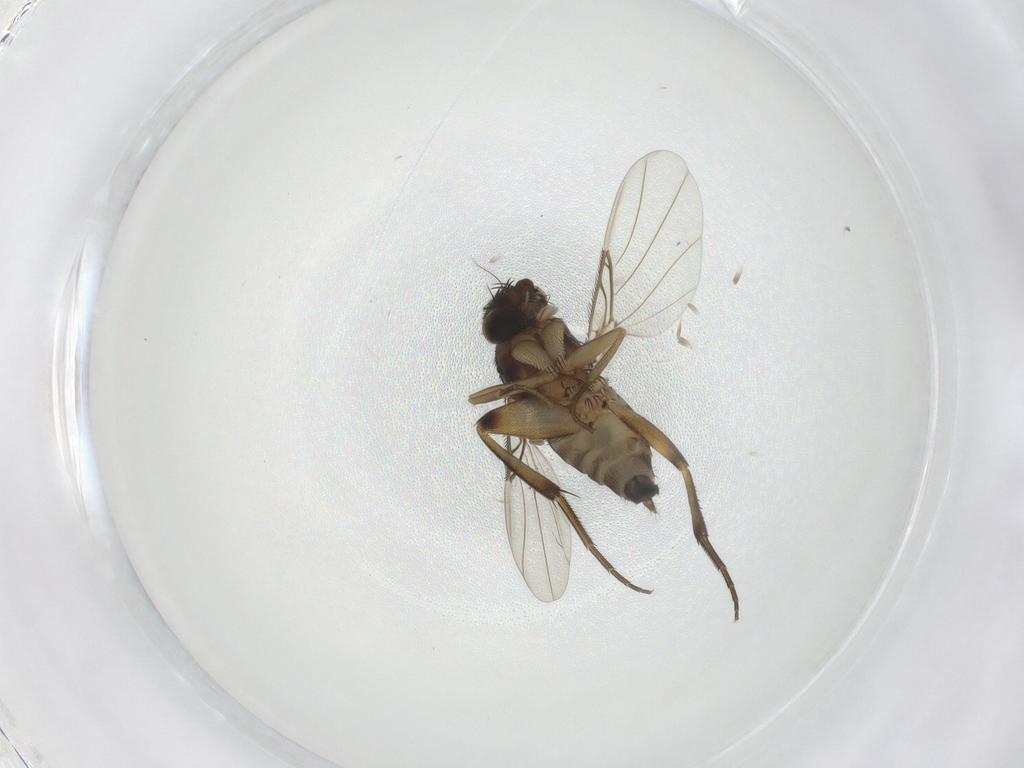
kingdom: Animalia
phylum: Arthropoda
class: Insecta
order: Diptera
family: Phoridae
